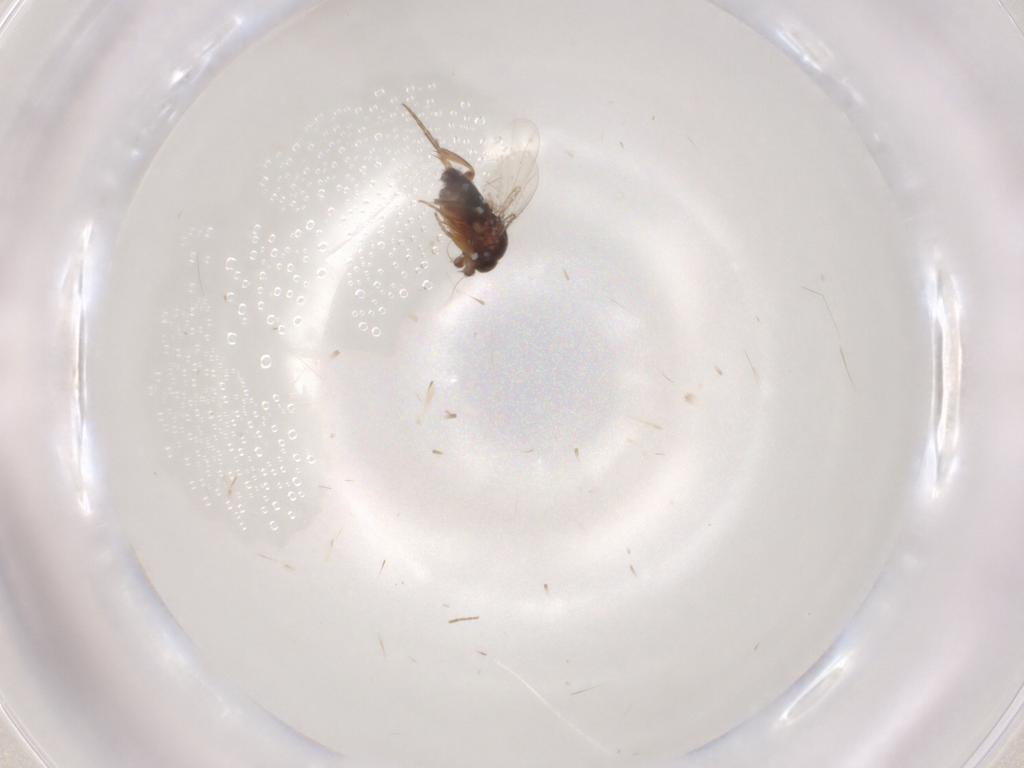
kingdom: Animalia
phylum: Arthropoda
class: Insecta
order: Diptera
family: Phoridae
